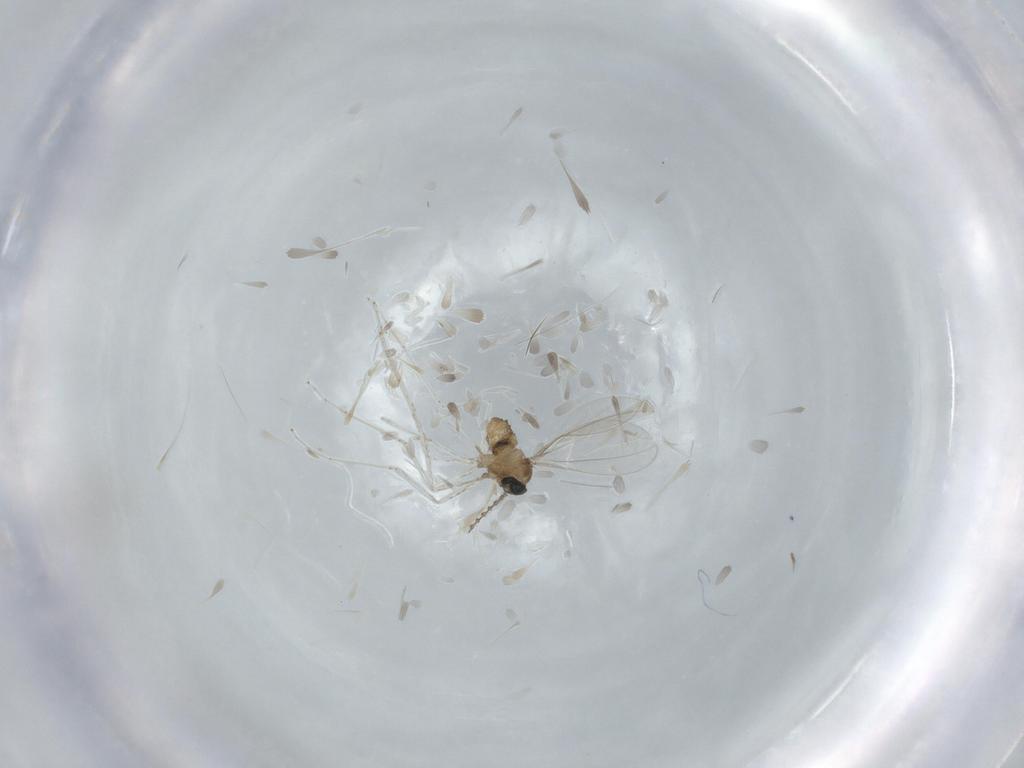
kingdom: Animalia
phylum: Arthropoda
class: Insecta
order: Diptera
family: Cecidomyiidae
